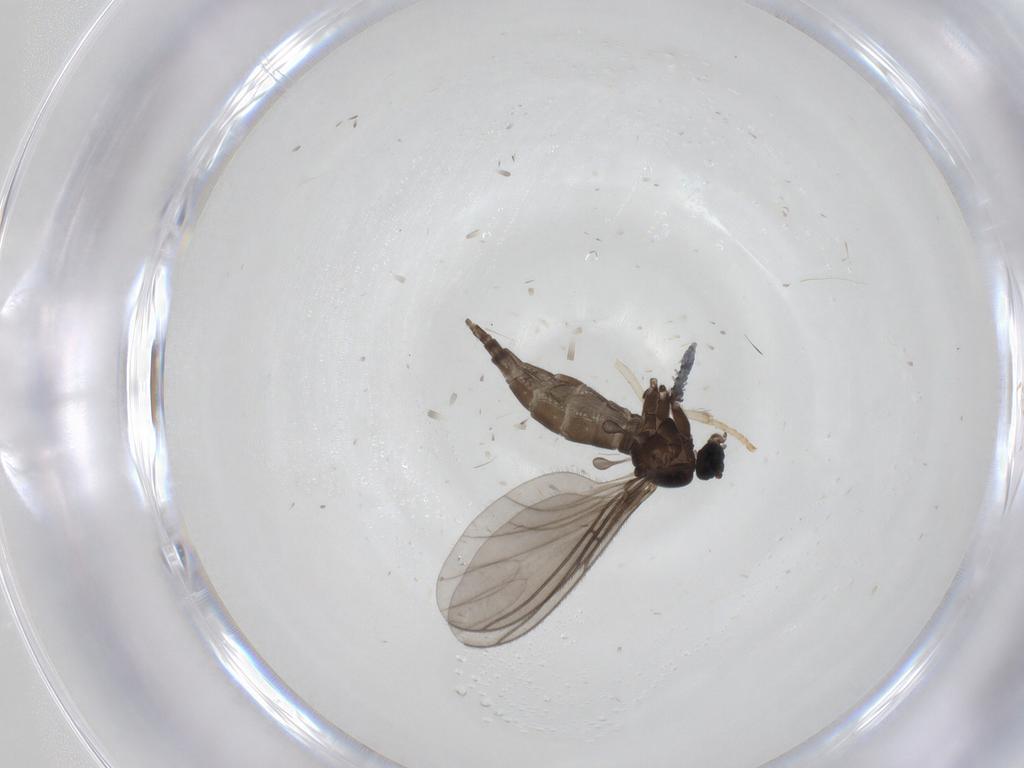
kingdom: Animalia
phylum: Arthropoda
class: Insecta
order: Diptera
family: Sciaridae
